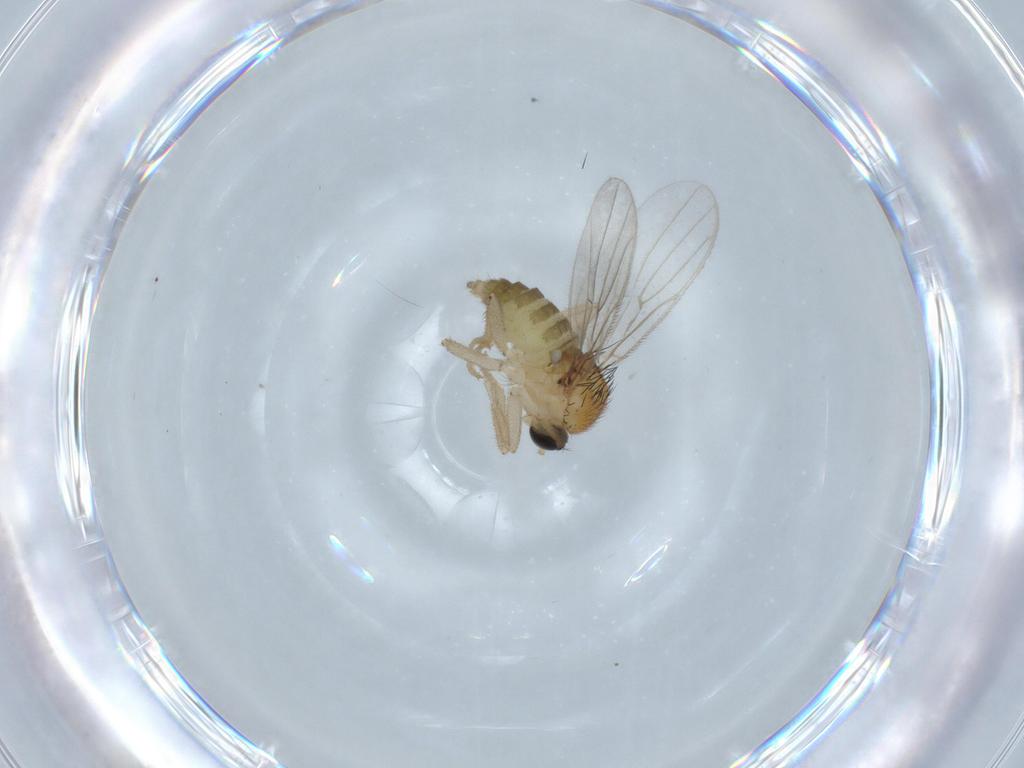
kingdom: Animalia
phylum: Arthropoda
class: Insecta
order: Diptera
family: Hybotidae
